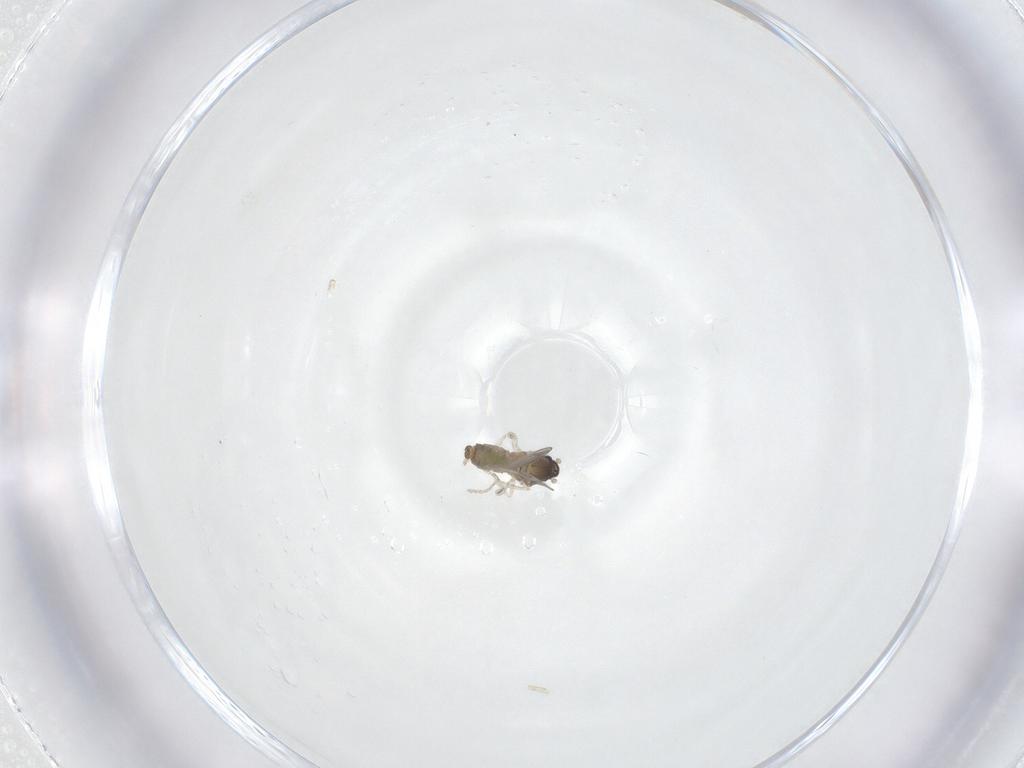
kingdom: Animalia
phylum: Arthropoda
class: Insecta
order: Diptera
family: Cecidomyiidae
